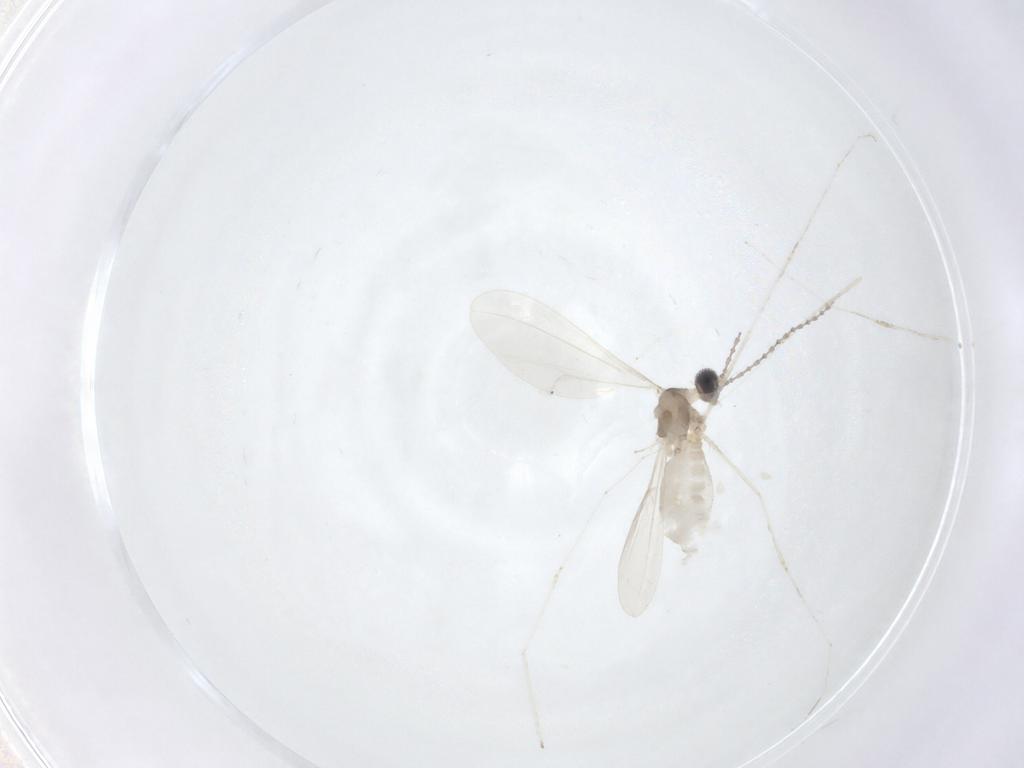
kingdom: Animalia
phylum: Arthropoda
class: Insecta
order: Diptera
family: Cecidomyiidae
